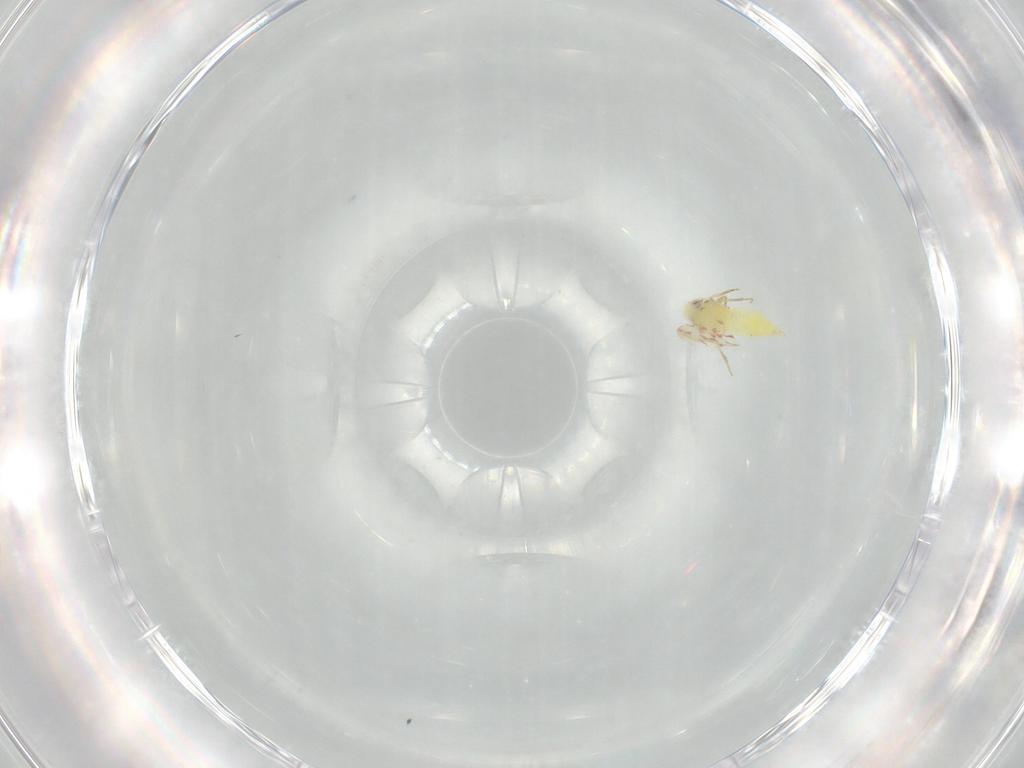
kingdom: Animalia
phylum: Arthropoda
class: Insecta
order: Hemiptera
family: Aleyrodidae
